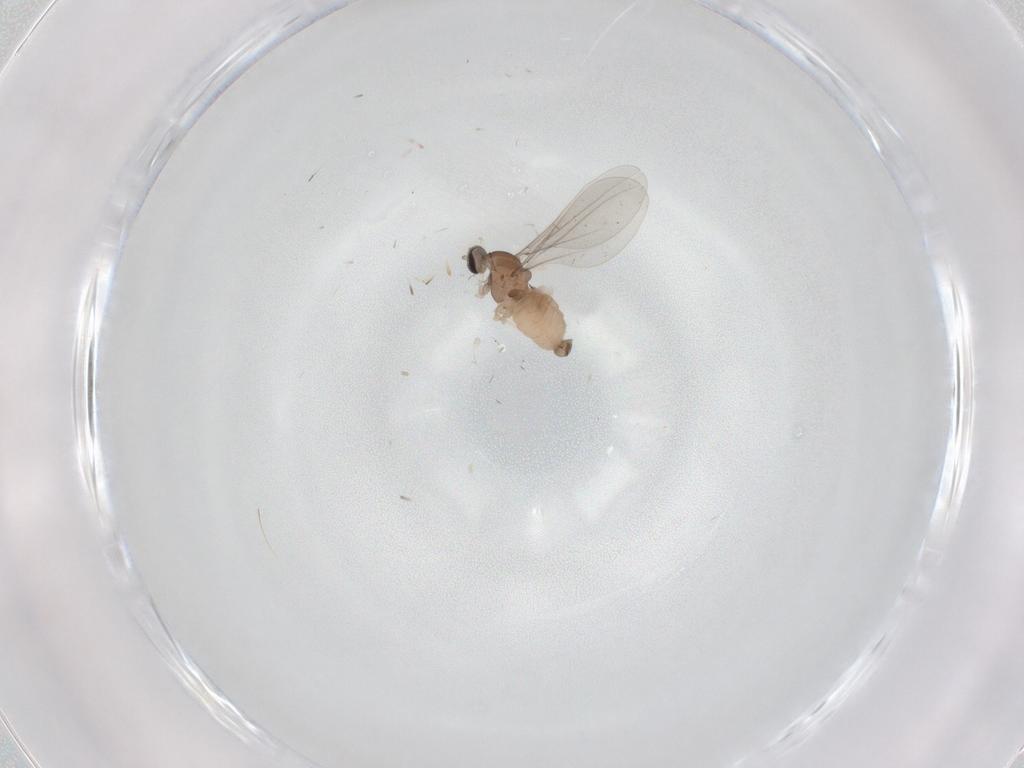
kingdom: Animalia
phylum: Arthropoda
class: Insecta
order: Diptera
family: Cecidomyiidae
